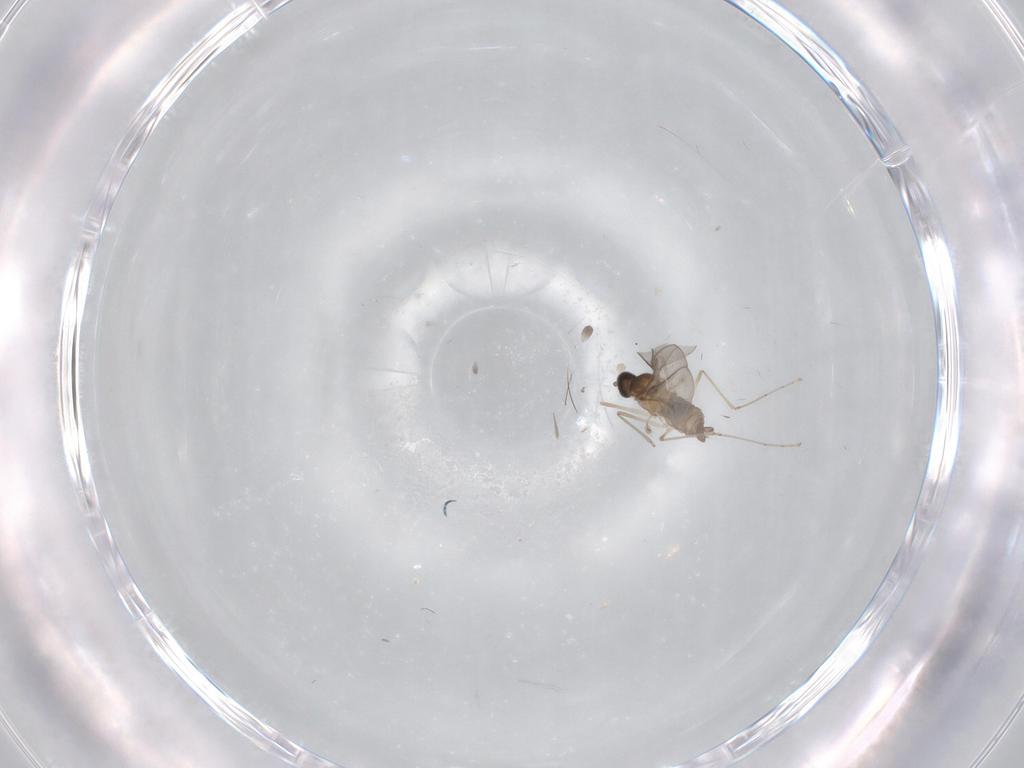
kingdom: Animalia
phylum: Arthropoda
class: Insecta
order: Diptera
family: Cecidomyiidae
